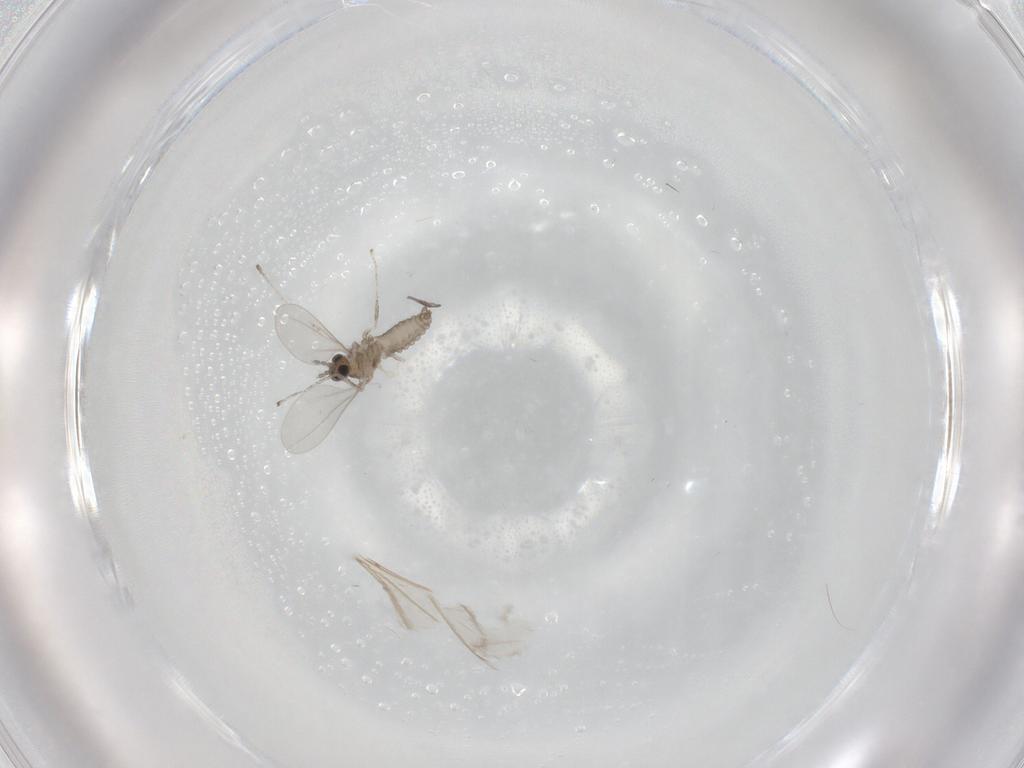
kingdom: Animalia
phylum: Arthropoda
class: Insecta
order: Diptera
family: Cecidomyiidae
